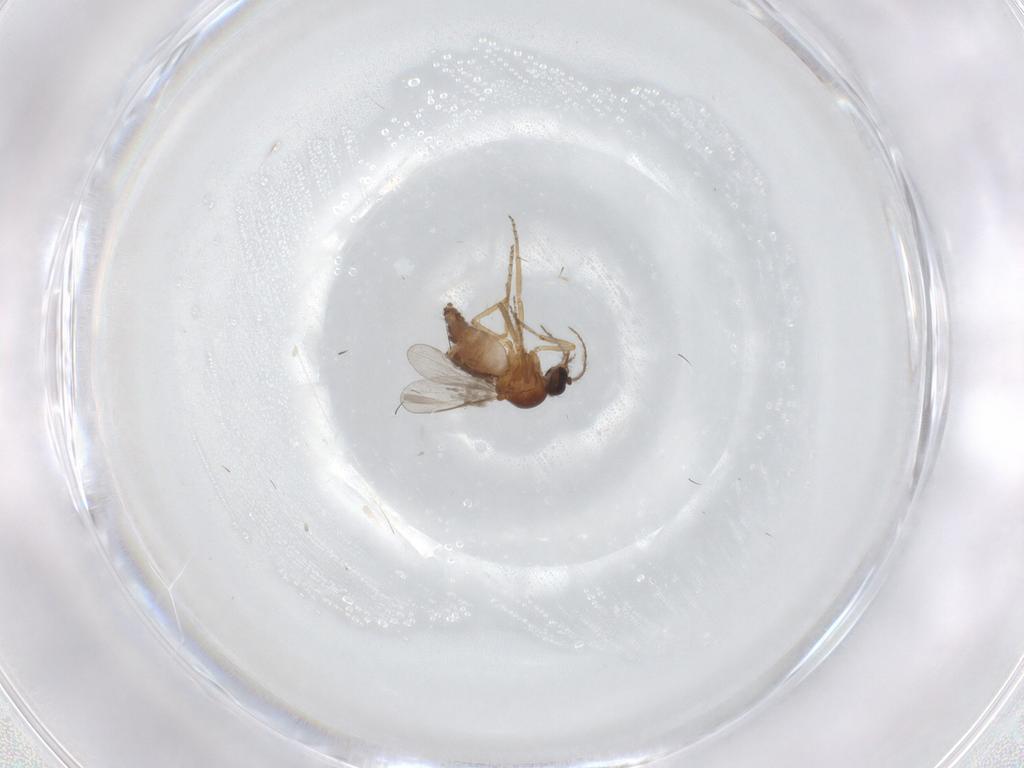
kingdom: Animalia
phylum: Arthropoda
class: Insecta
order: Diptera
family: Ceratopogonidae
